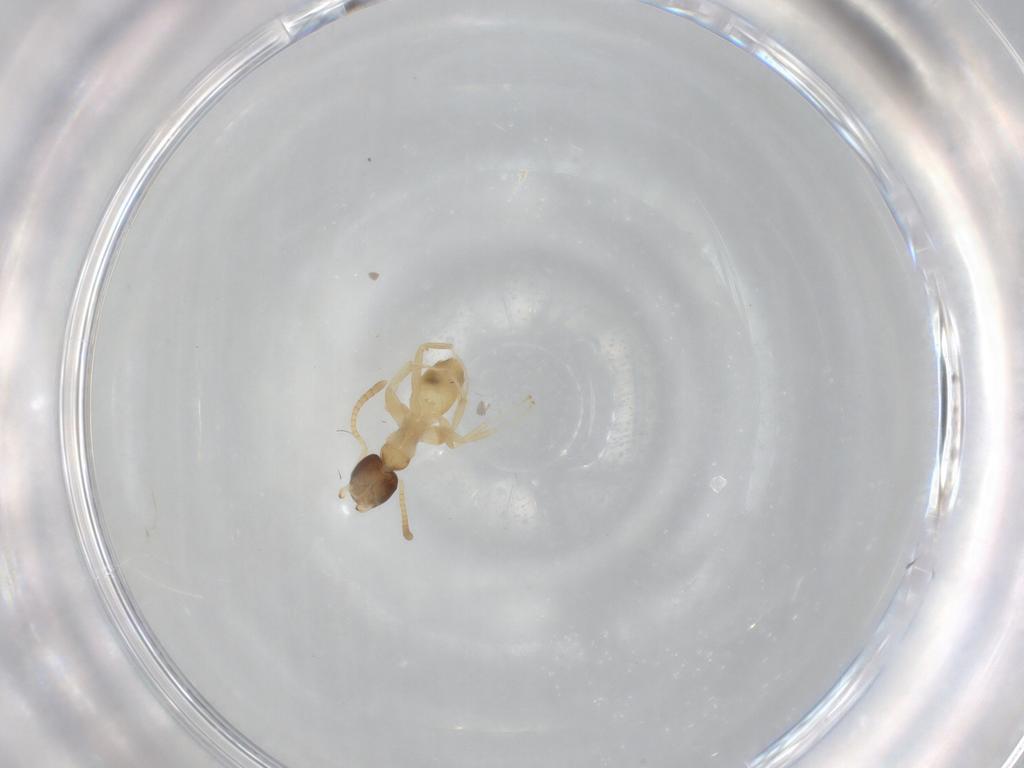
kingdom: Animalia
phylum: Arthropoda
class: Insecta
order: Hymenoptera
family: Formicidae
